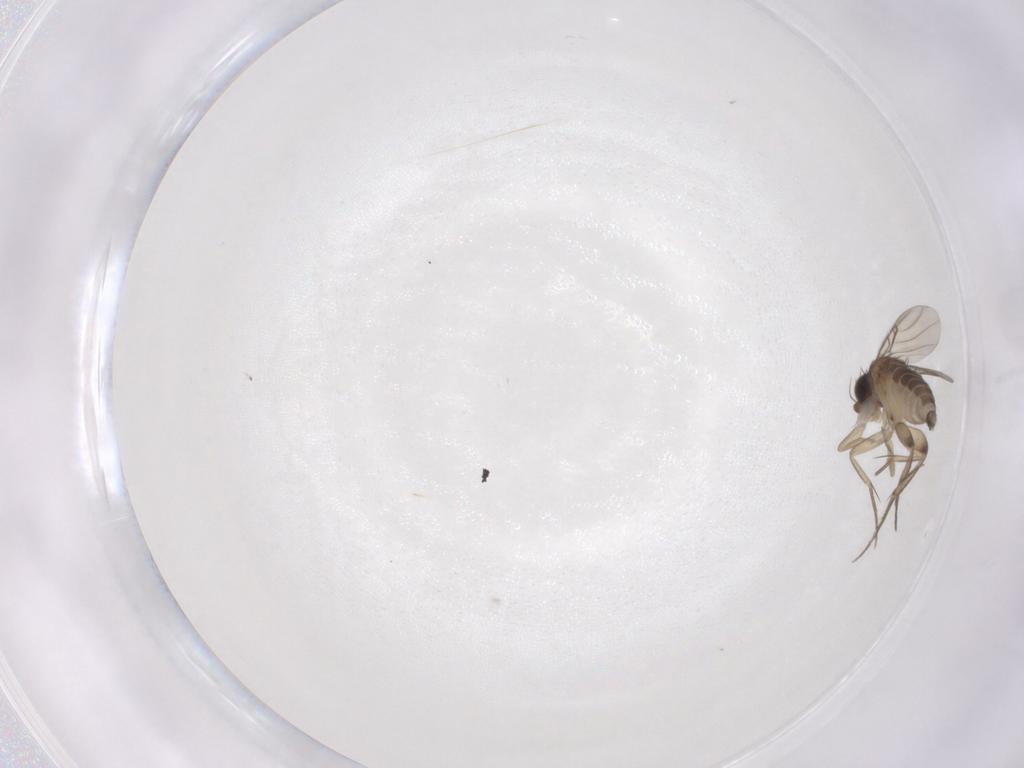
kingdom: Animalia
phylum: Arthropoda
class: Insecta
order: Diptera
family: Phoridae
